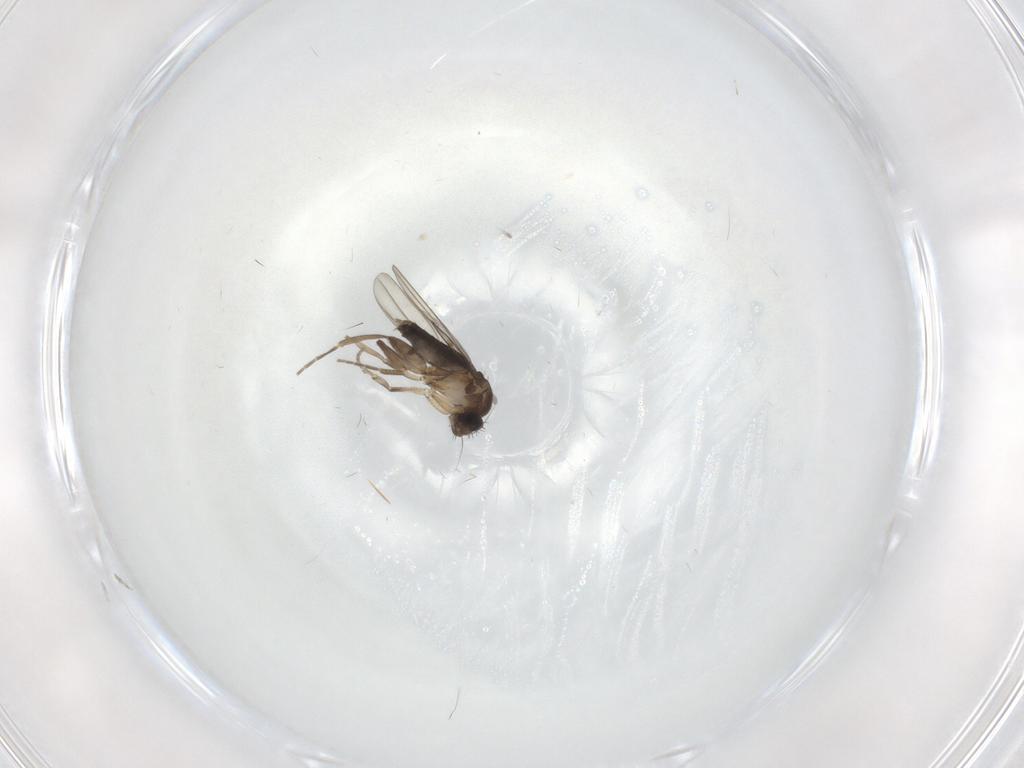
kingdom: Animalia
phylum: Arthropoda
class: Insecta
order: Diptera
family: Sciaridae
